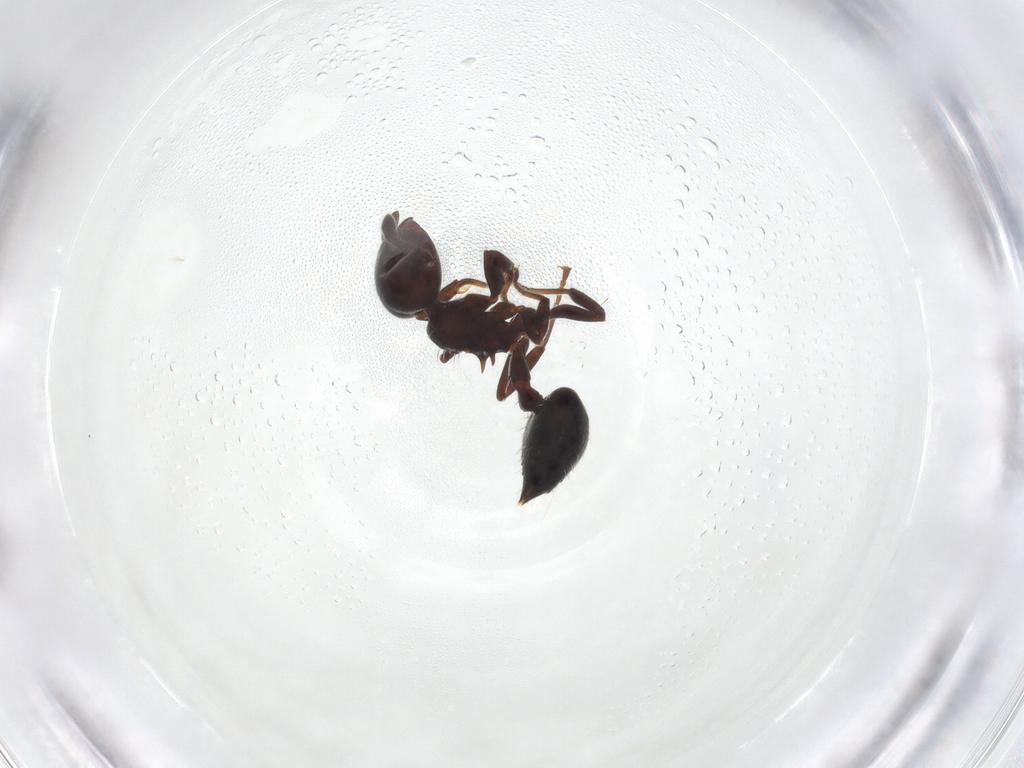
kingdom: Animalia
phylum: Arthropoda
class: Insecta
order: Hymenoptera
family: Formicidae
